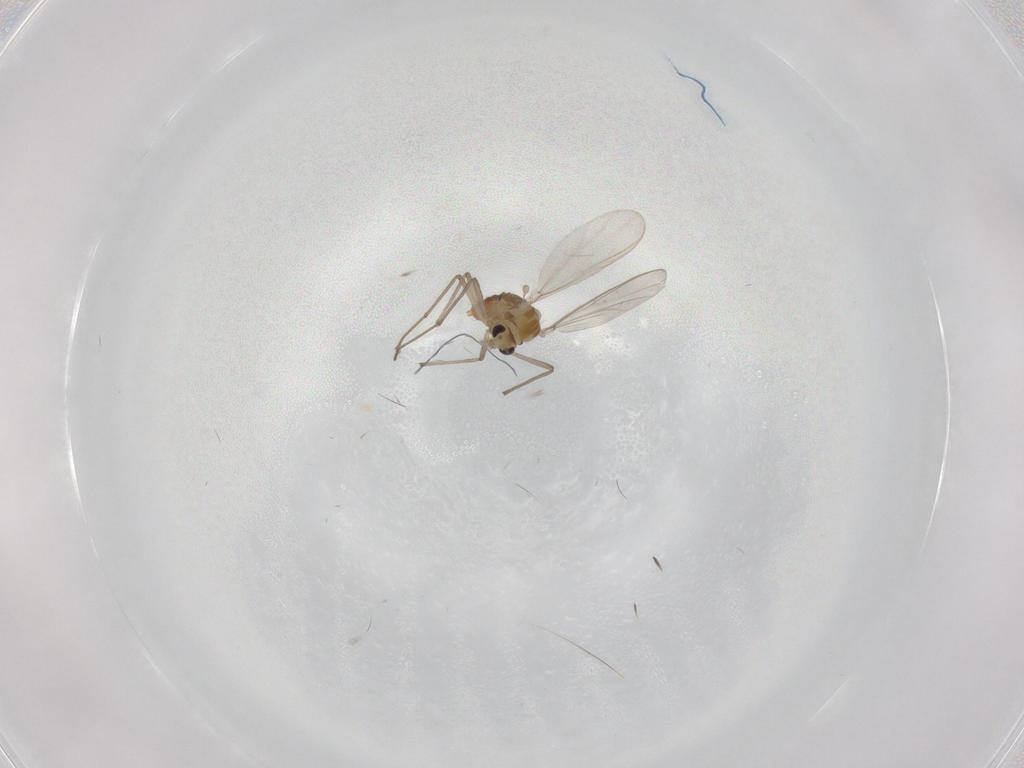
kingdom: Animalia
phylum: Arthropoda
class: Insecta
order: Diptera
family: Chironomidae
